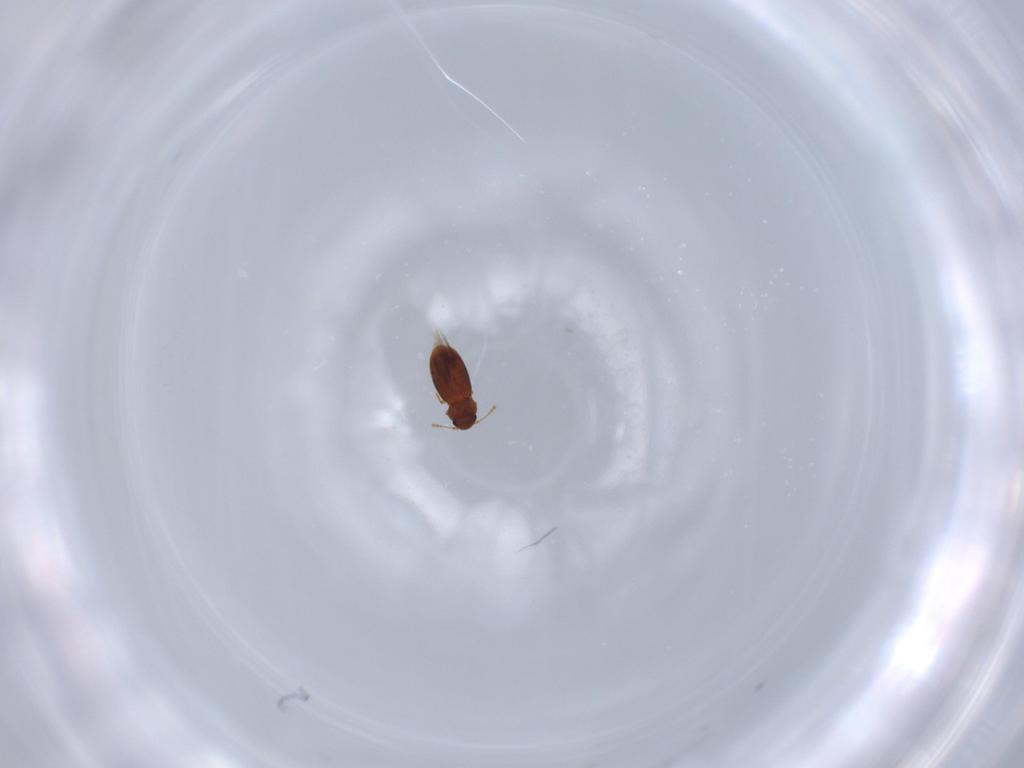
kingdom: Animalia
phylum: Arthropoda
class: Insecta
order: Coleoptera
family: Ptiliidae
